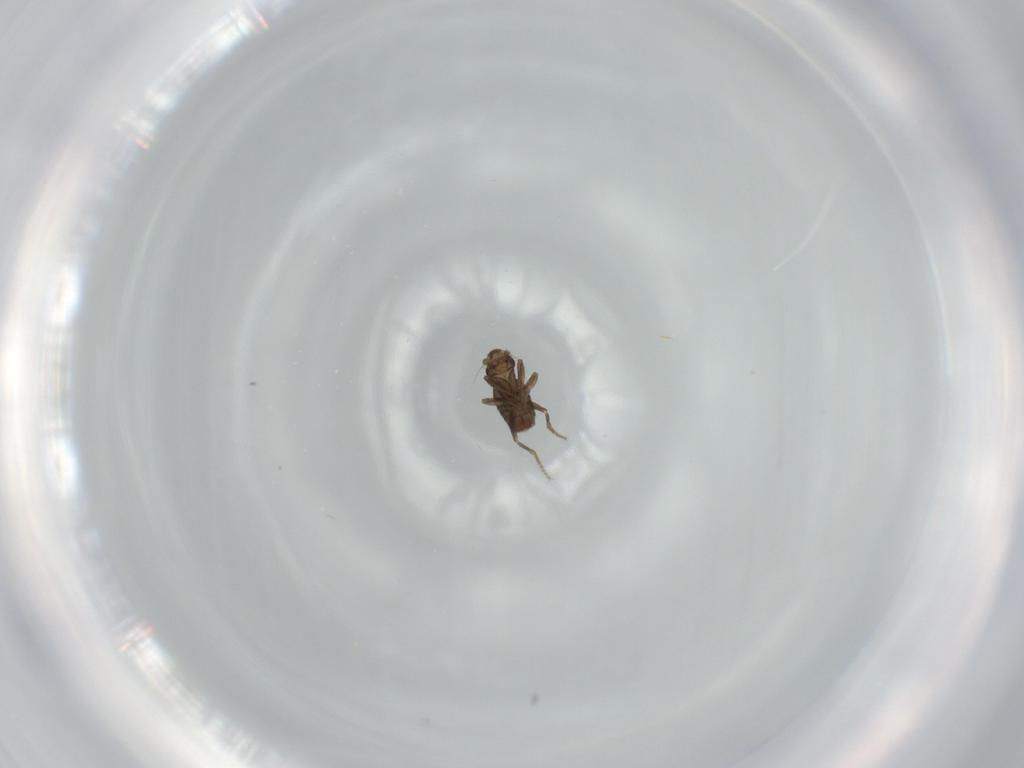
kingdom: Animalia
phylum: Arthropoda
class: Insecta
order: Diptera
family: Phoridae
